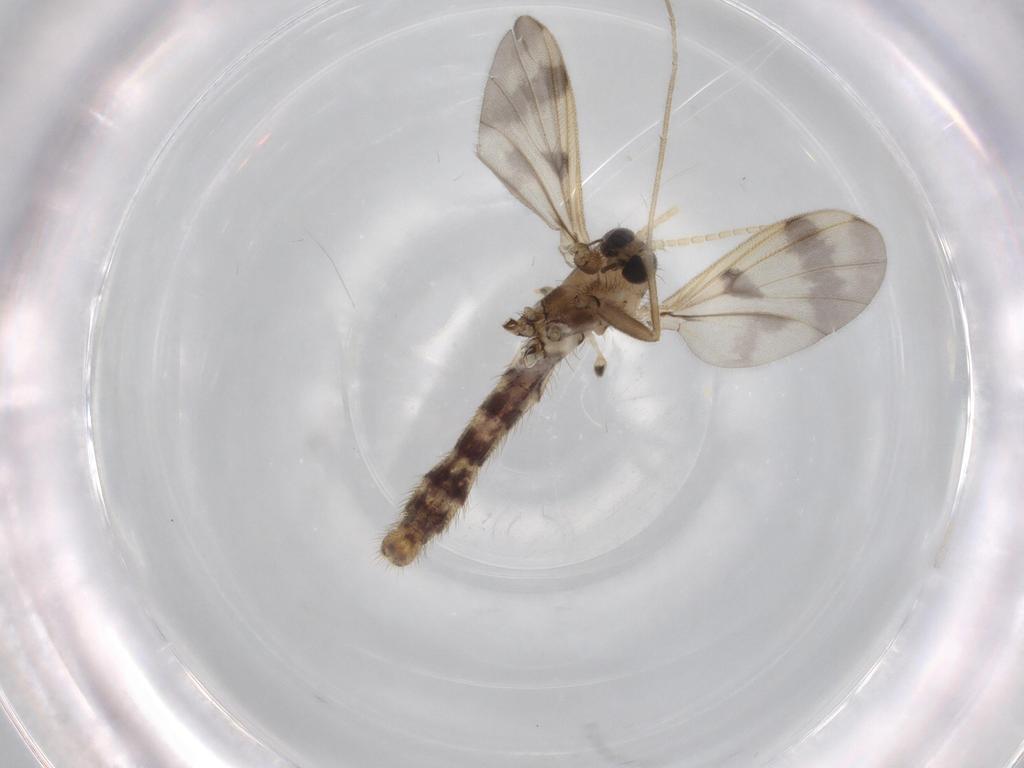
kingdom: Animalia
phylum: Arthropoda
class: Insecta
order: Diptera
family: Mycetophilidae
